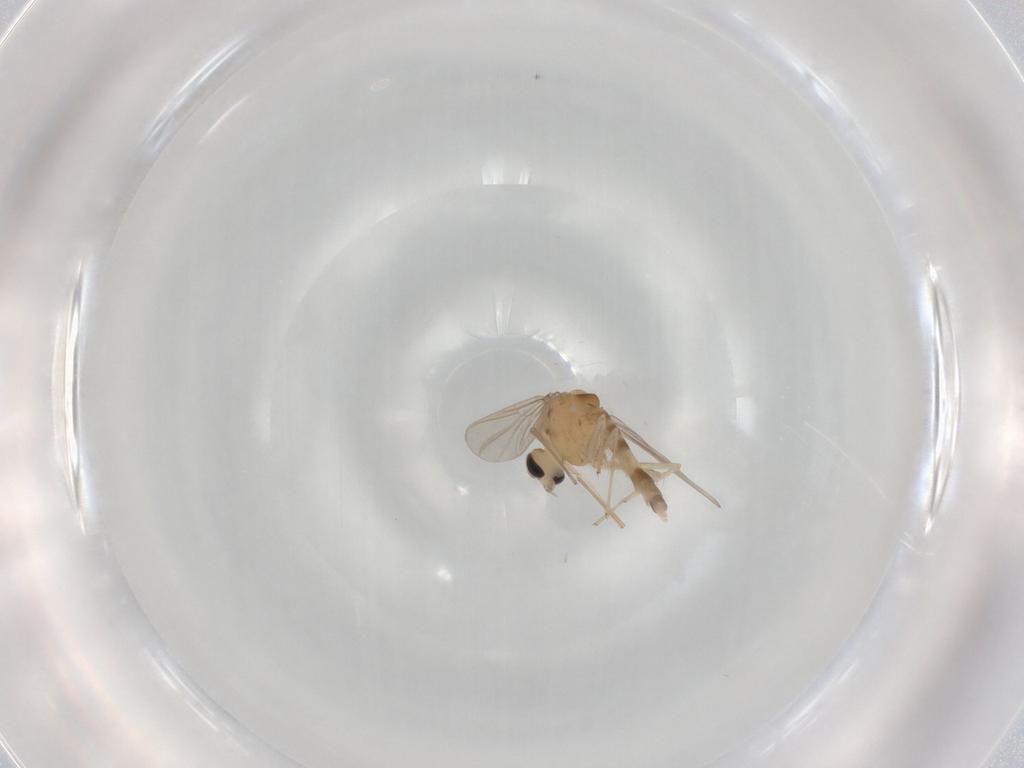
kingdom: Animalia
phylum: Arthropoda
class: Insecta
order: Diptera
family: Chironomidae
